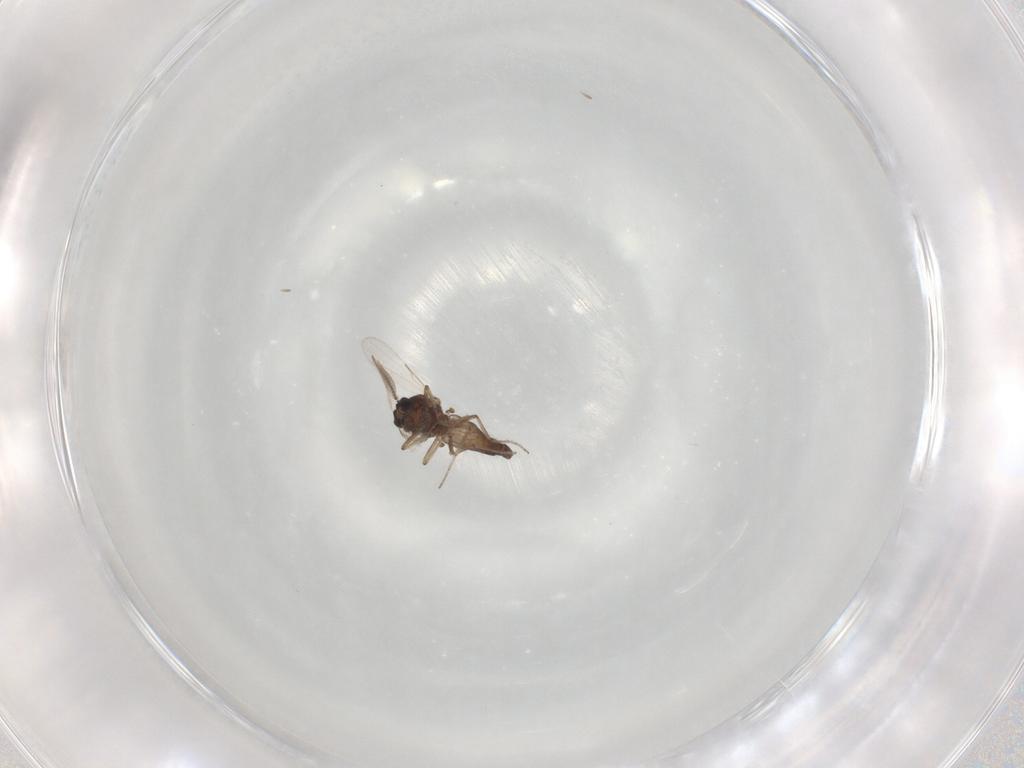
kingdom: Animalia
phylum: Arthropoda
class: Insecta
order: Diptera
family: Ceratopogonidae
